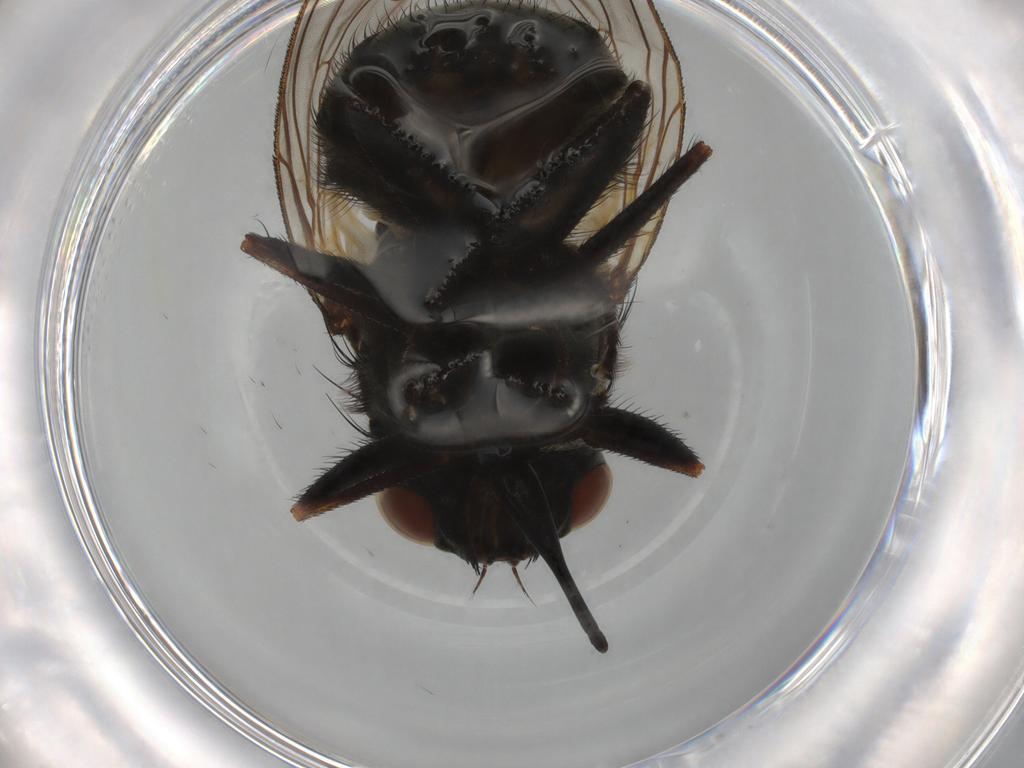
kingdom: Animalia
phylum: Arthropoda
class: Insecta
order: Diptera
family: Muscidae
